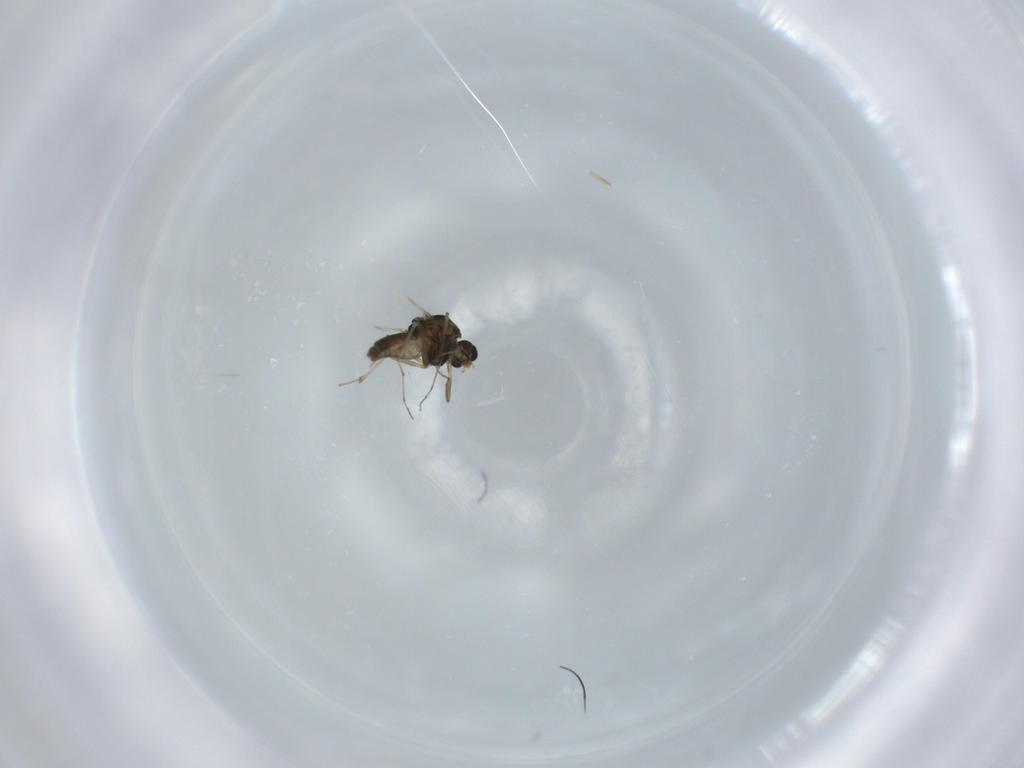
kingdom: Animalia
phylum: Arthropoda
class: Insecta
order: Diptera
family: Chironomidae
